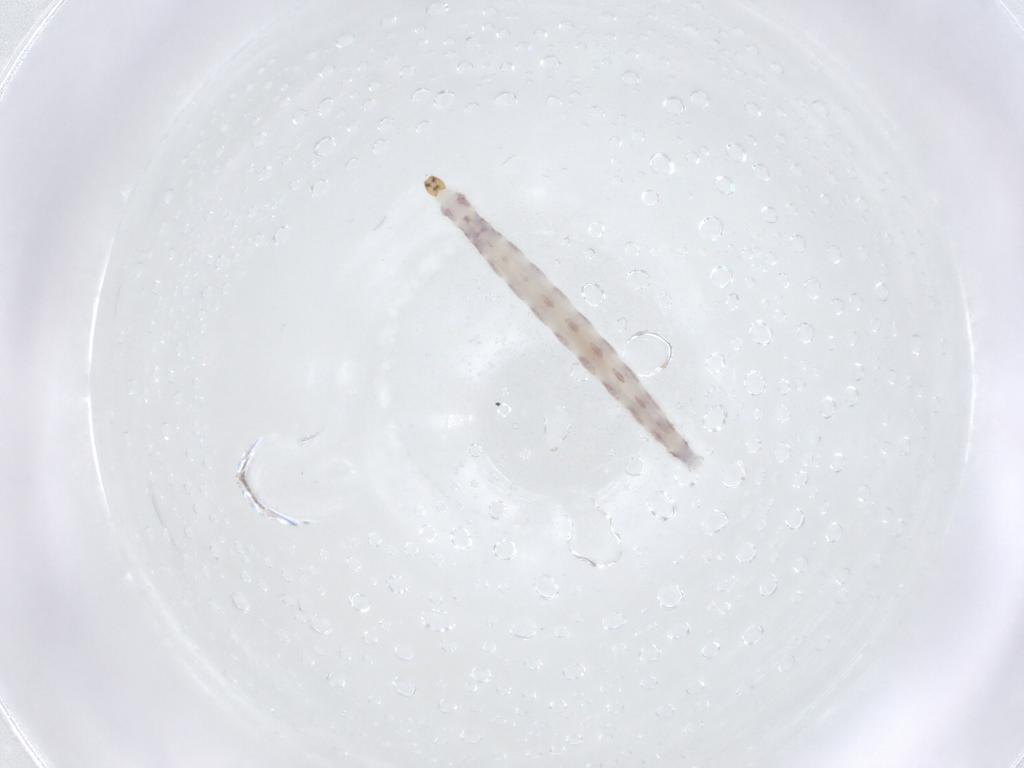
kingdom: Animalia
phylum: Arthropoda
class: Insecta
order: Diptera
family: Chironomidae
